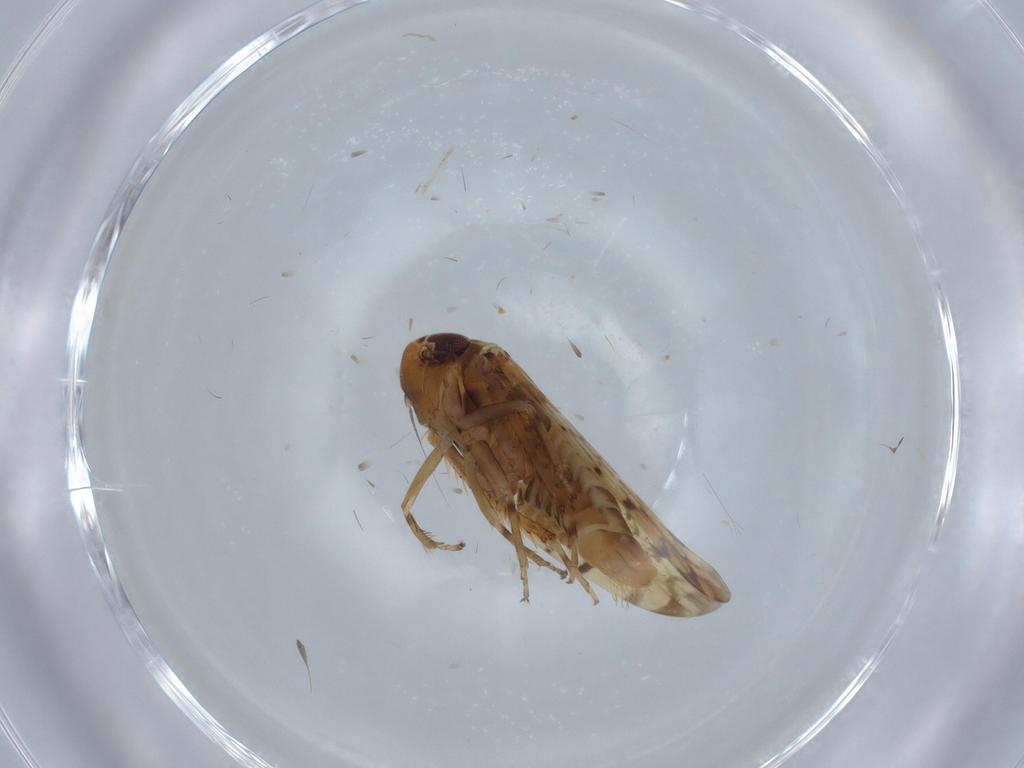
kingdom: Animalia
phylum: Arthropoda
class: Insecta
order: Hemiptera
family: Cicadellidae
